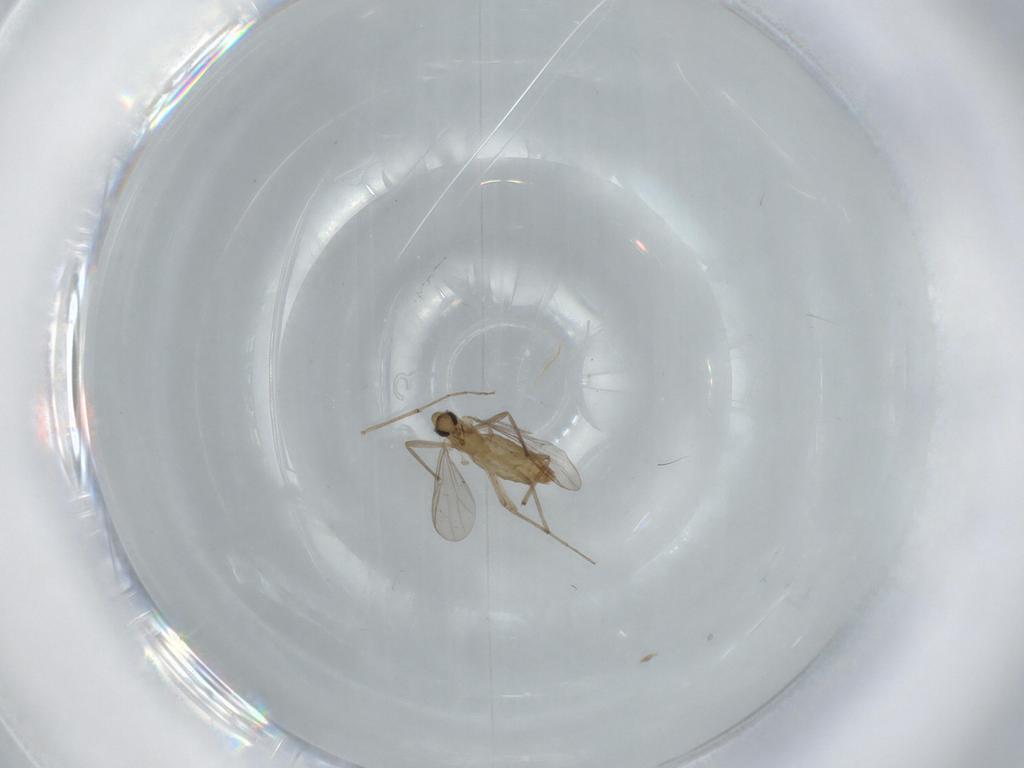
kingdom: Animalia
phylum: Arthropoda
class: Insecta
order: Diptera
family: Chironomidae
